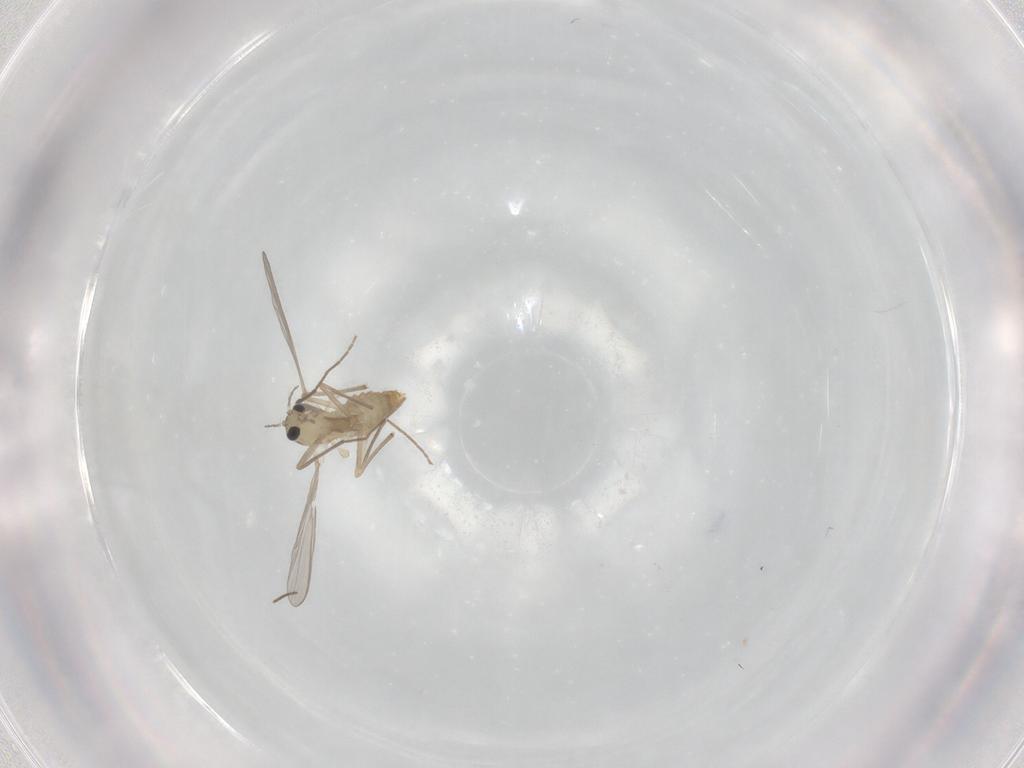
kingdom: Animalia
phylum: Arthropoda
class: Insecta
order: Diptera
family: Chironomidae
